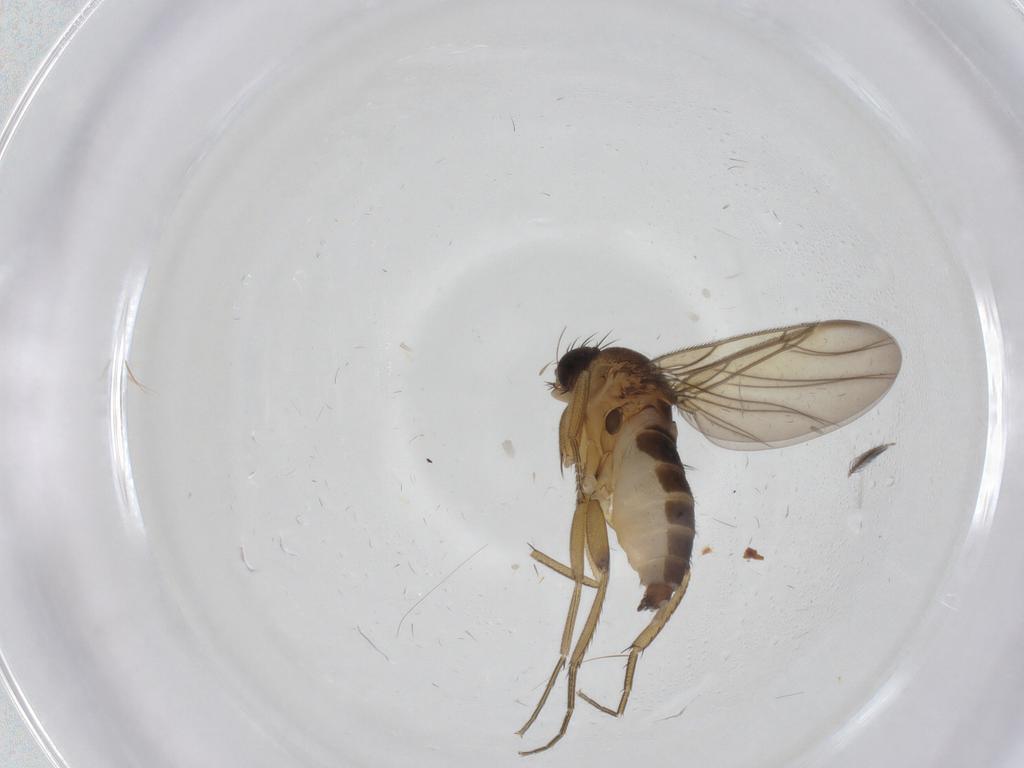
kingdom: Animalia
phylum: Arthropoda
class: Insecta
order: Diptera
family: Phoridae
